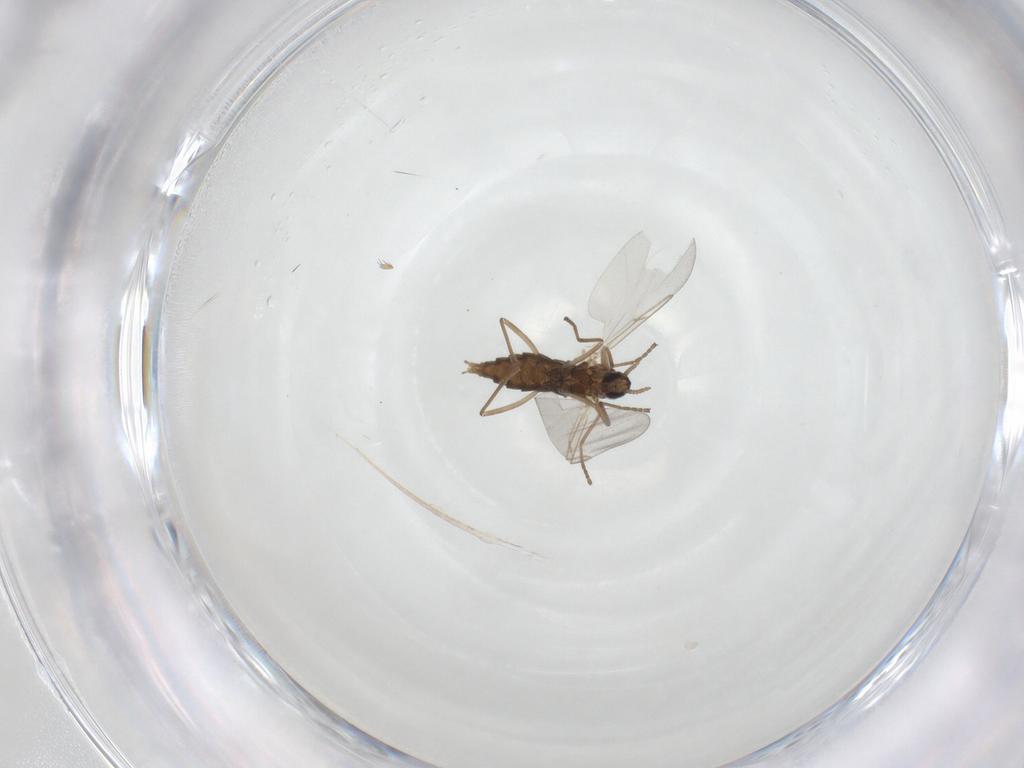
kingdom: Animalia
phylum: Arthropoda
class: Insecta
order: Diptera
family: Cecidomyiidae
